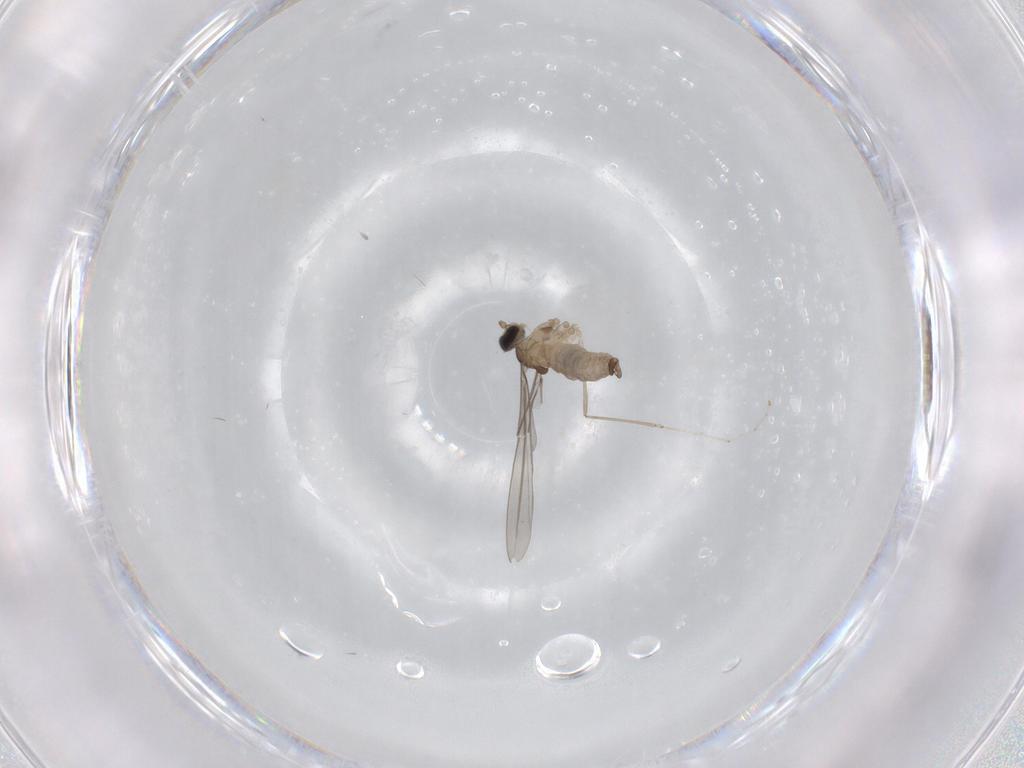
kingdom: Animalia
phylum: Arthropoda
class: Insecta
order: Diptera
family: Cecidomyiidae
